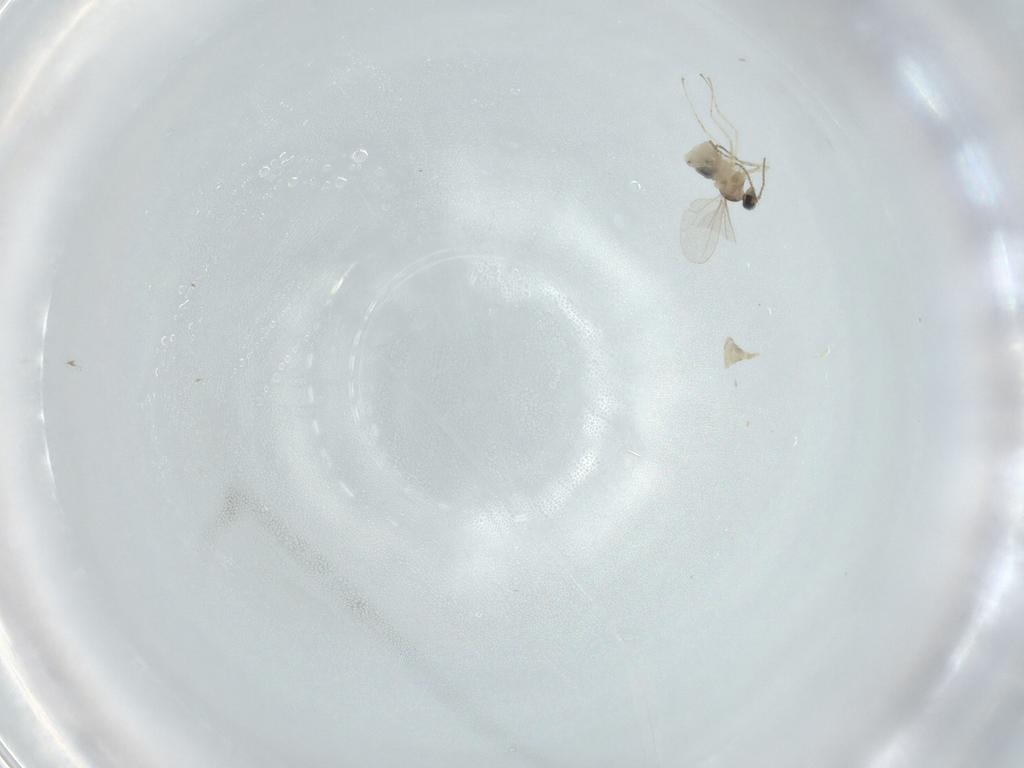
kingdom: Animalia
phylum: Arthropoda
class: Insecta
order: Diptera
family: Cecidomyiidae
